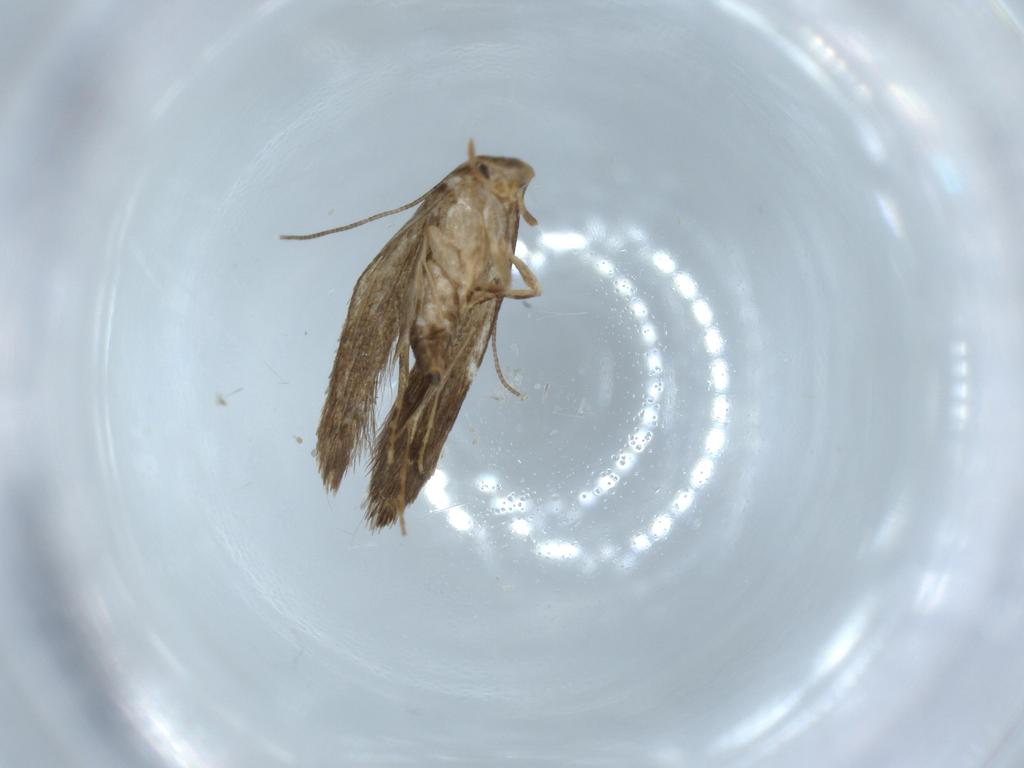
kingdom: Animalia
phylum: Arthropoda
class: Insecta
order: Lepidoptera
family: Tineidae
